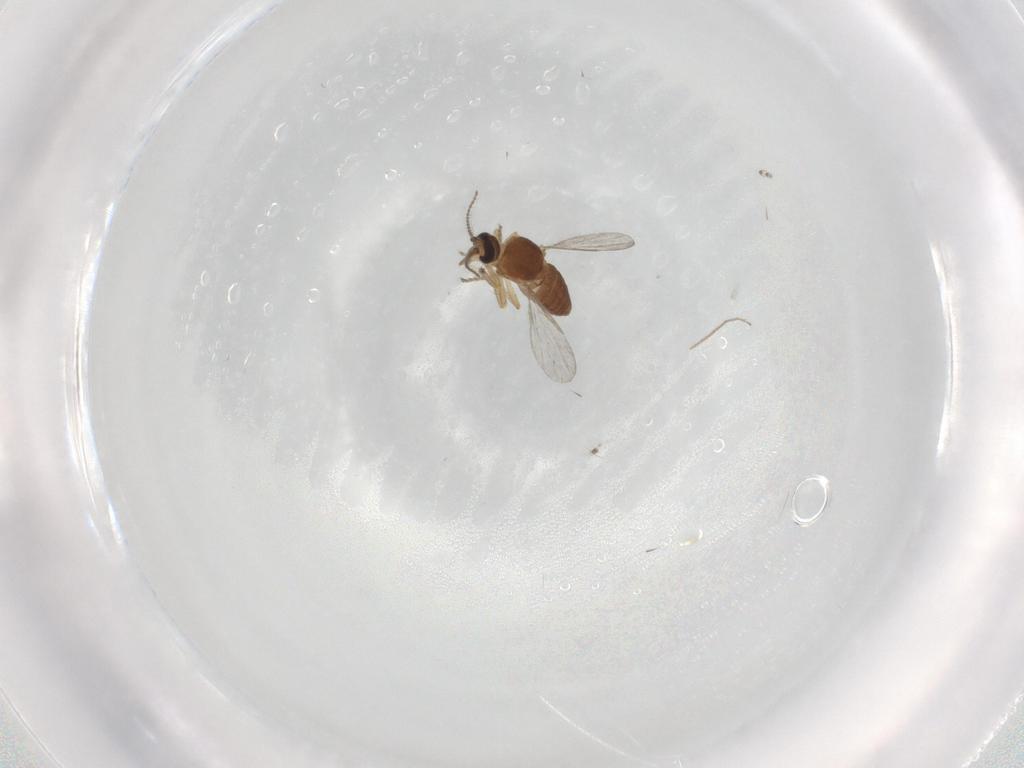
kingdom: Animalia
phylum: Arthropoda
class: Insecta
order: Diptera
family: Ceratopogonidae
